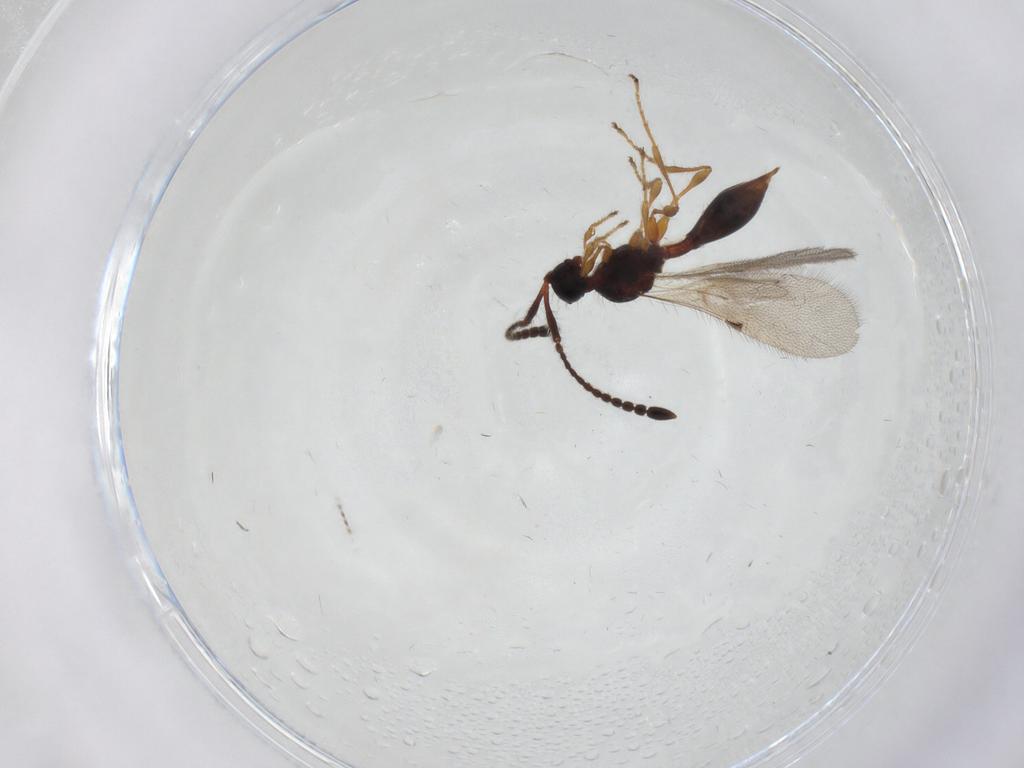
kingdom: Animalia
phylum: Arthropoda
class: Insecta
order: Hymenoptera
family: Diapriidae
